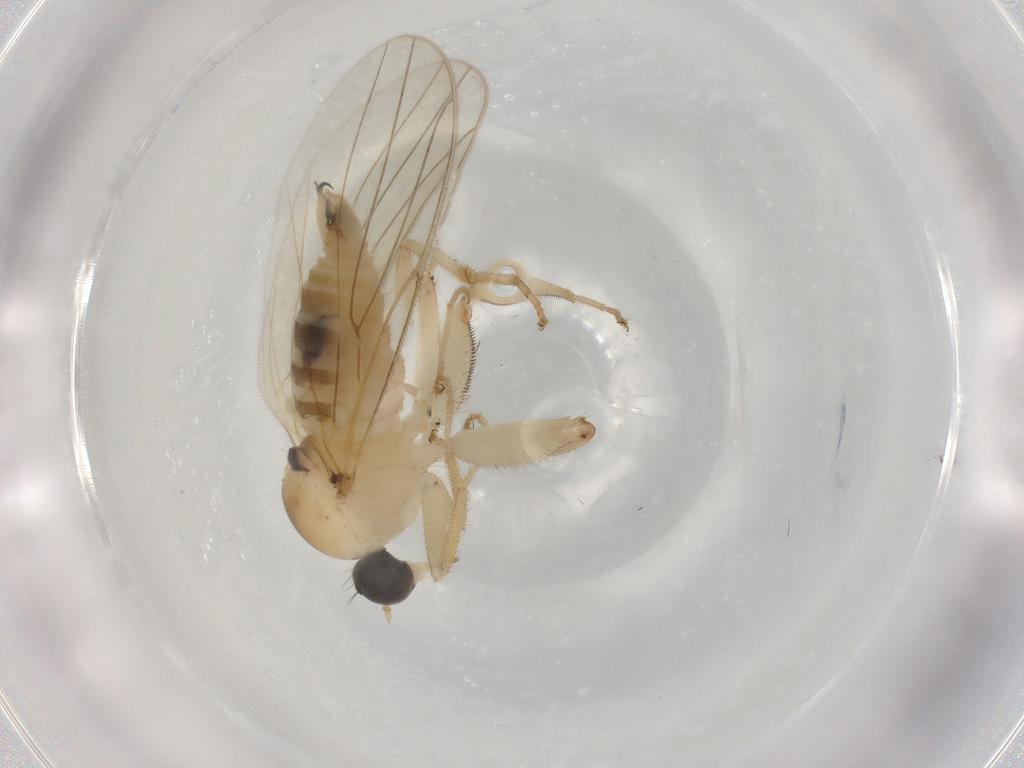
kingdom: Animalia
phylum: Arthropoda
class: Insecta
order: Diptera
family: Hybotidae
